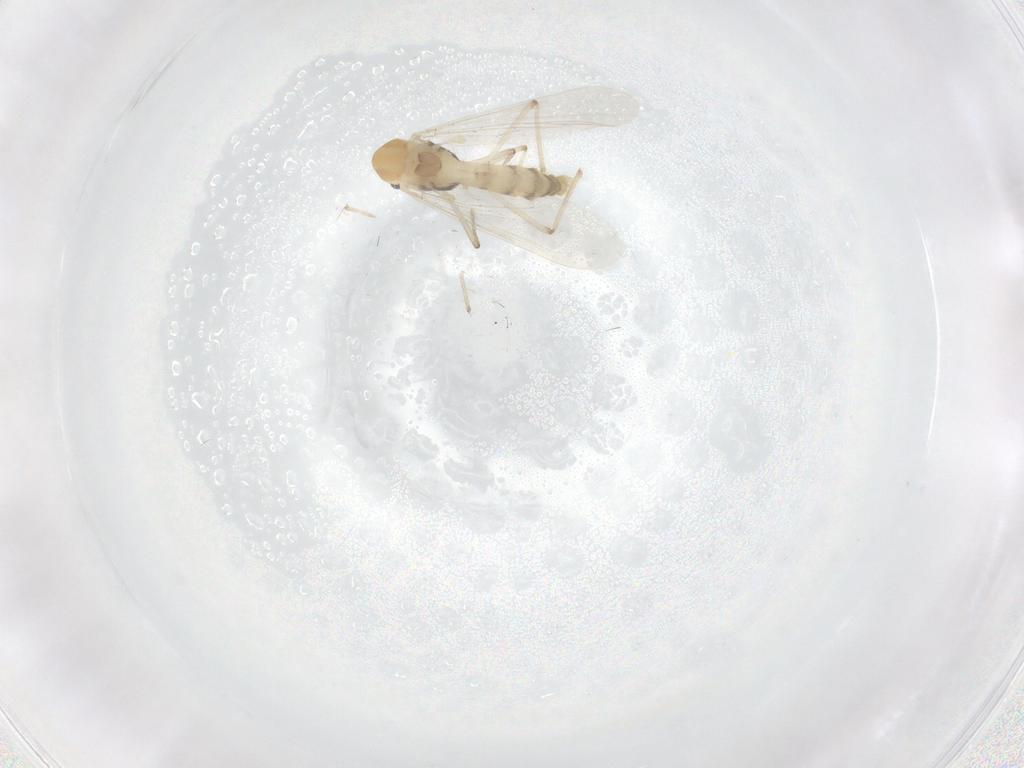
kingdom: Animalia
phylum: Arthropoda
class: Insecta
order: Diptera
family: Chironomidae
